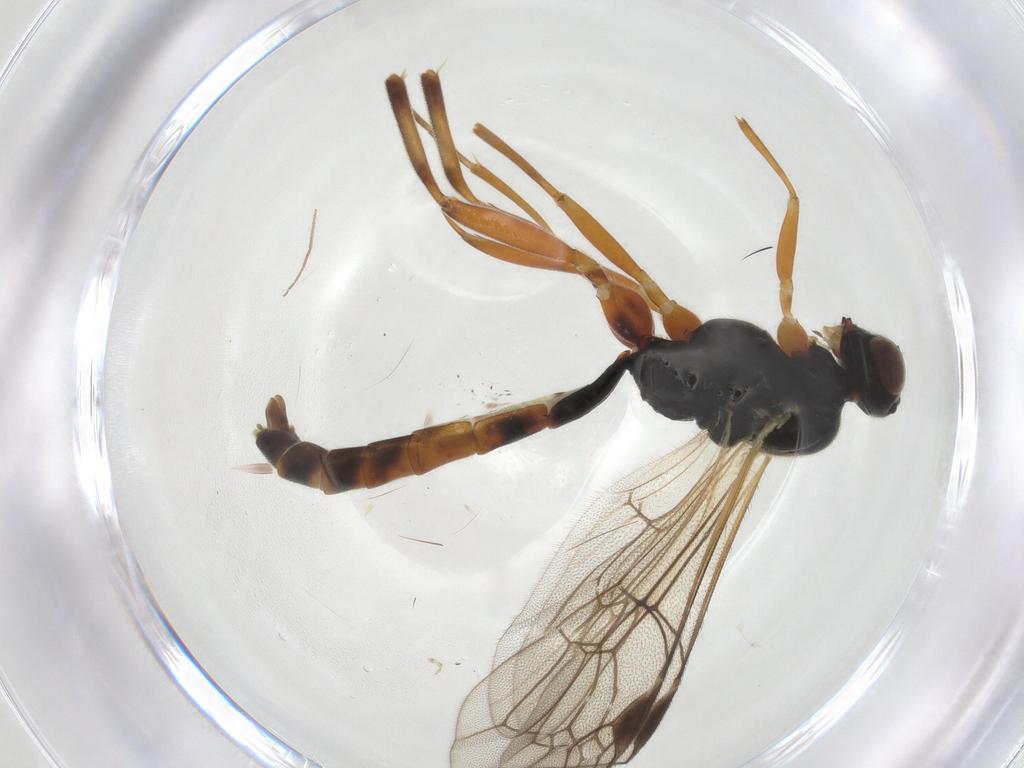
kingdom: Animalia
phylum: Arthropoda
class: Insecta
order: Hymenoptera
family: Ichneumonidae
